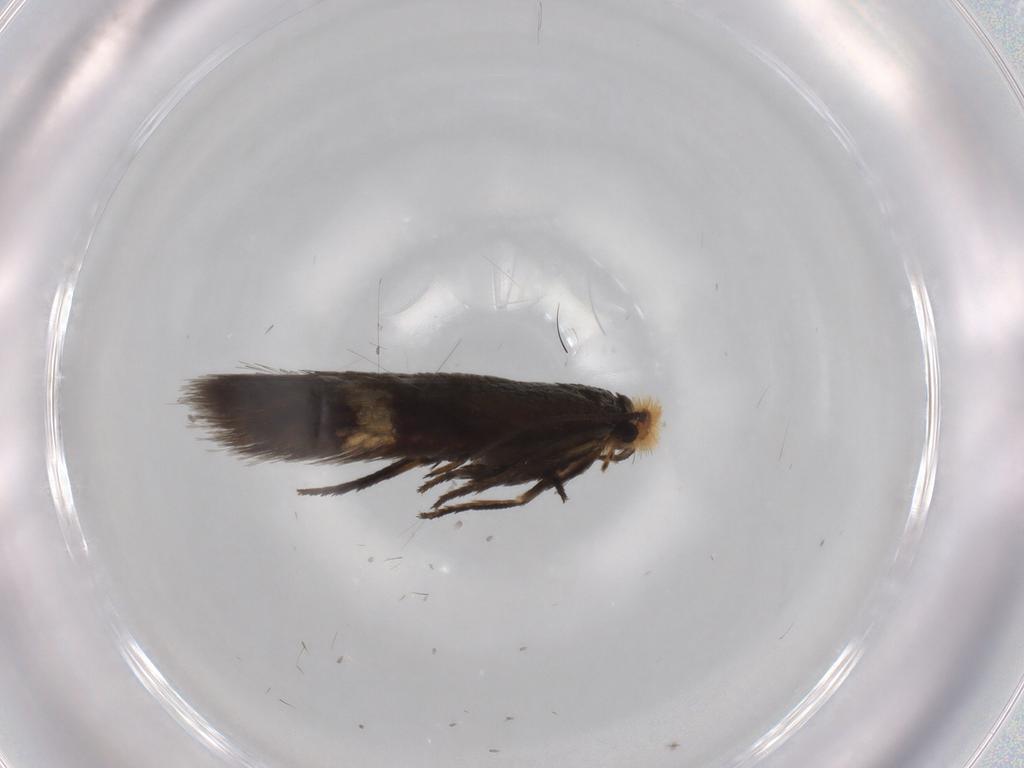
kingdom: Animalia
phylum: Arthropoda
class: Insecta
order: Lepidoptera
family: Nepticulidae
